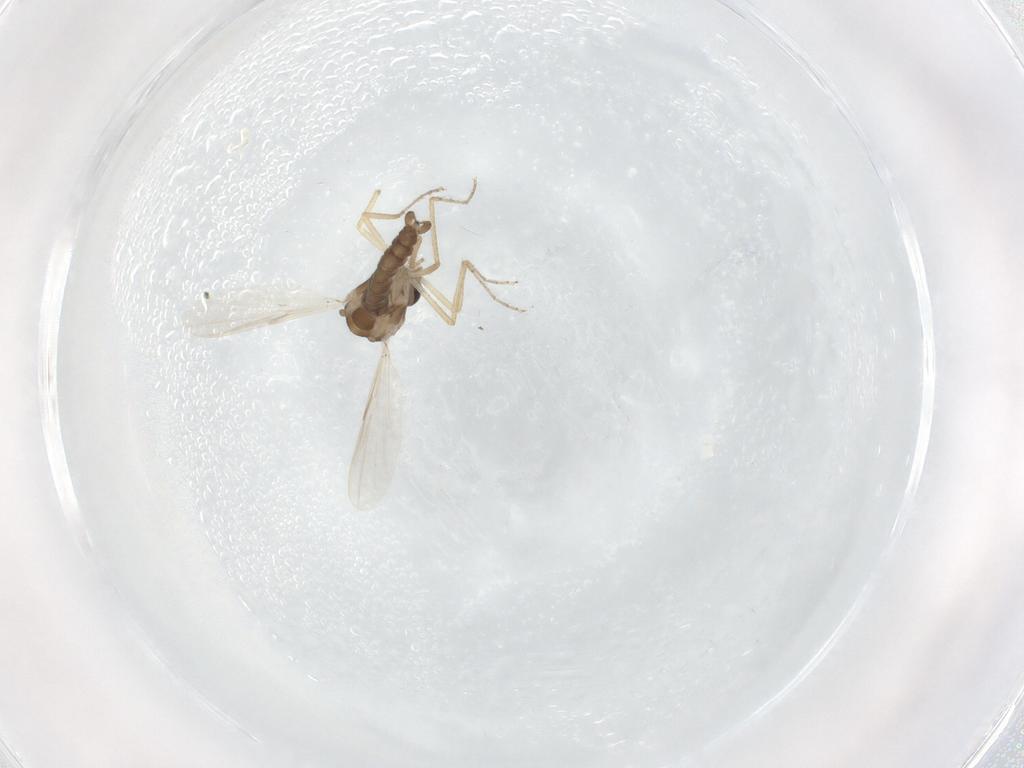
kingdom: Animalia
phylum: Arthropoda
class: Insecta
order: Diptera
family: Ceratopogonidae
